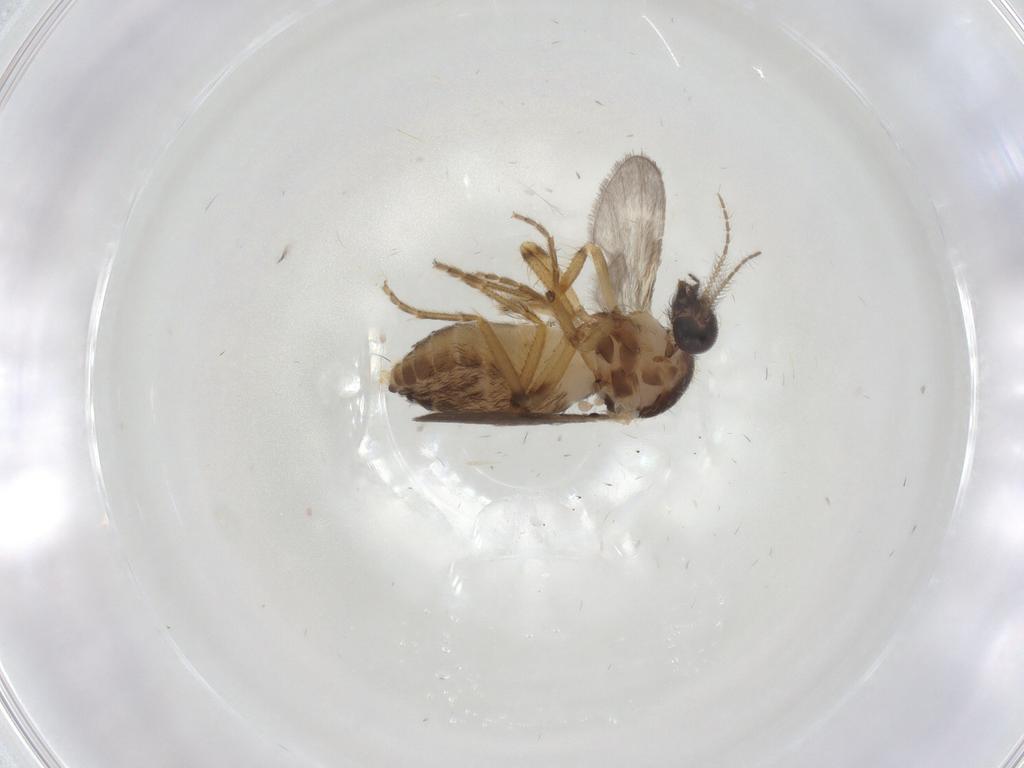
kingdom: Animalia
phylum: Arthropoda
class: Insecta
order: Diptera
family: Ceratopogonidae
